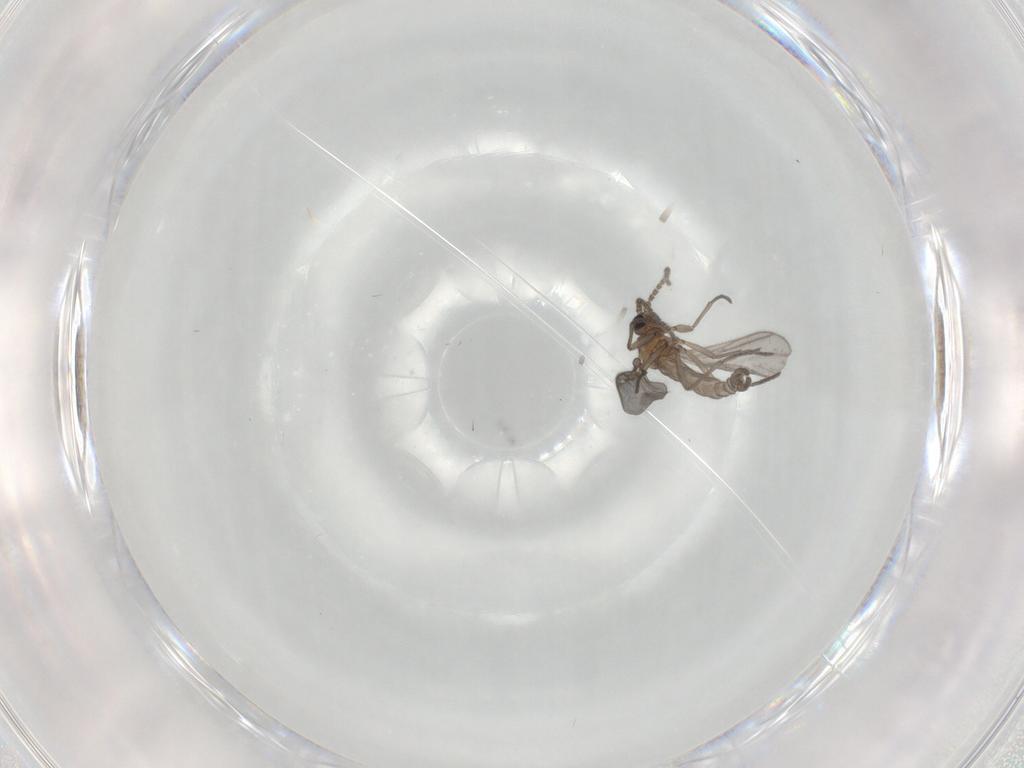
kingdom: Animalia
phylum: Arthropoda
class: Insecta
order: Diptera
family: Sciaridae
